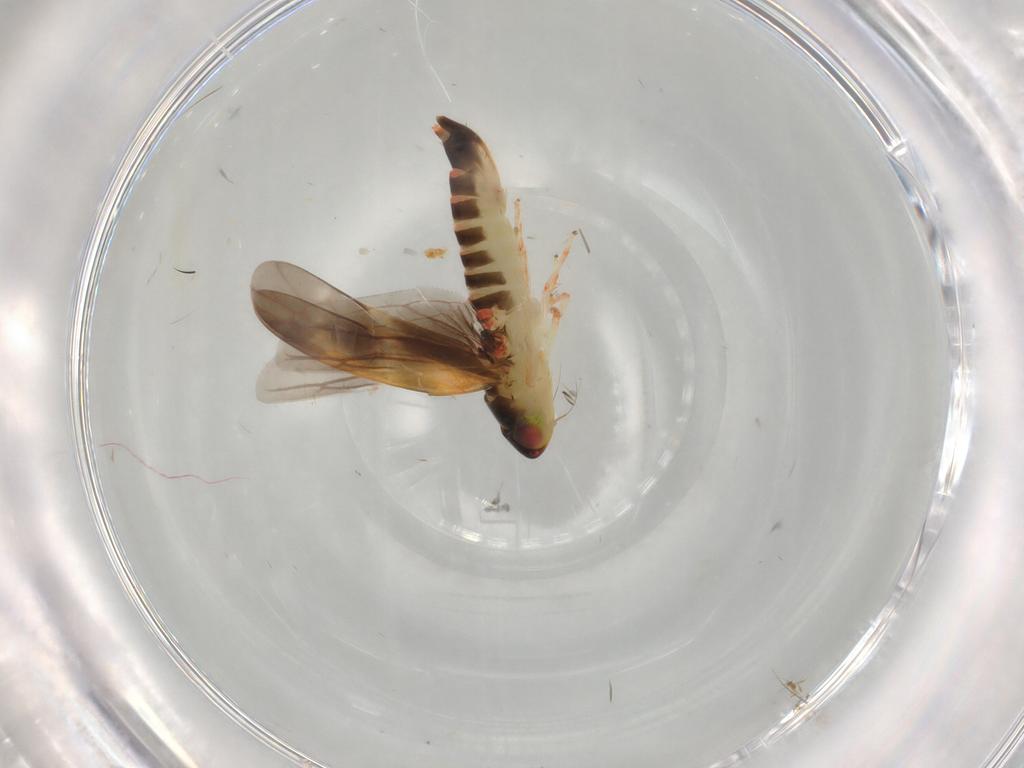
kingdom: Animalia
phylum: Arthropoda
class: Insecta
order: Hemiptera
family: Cicadellidae
